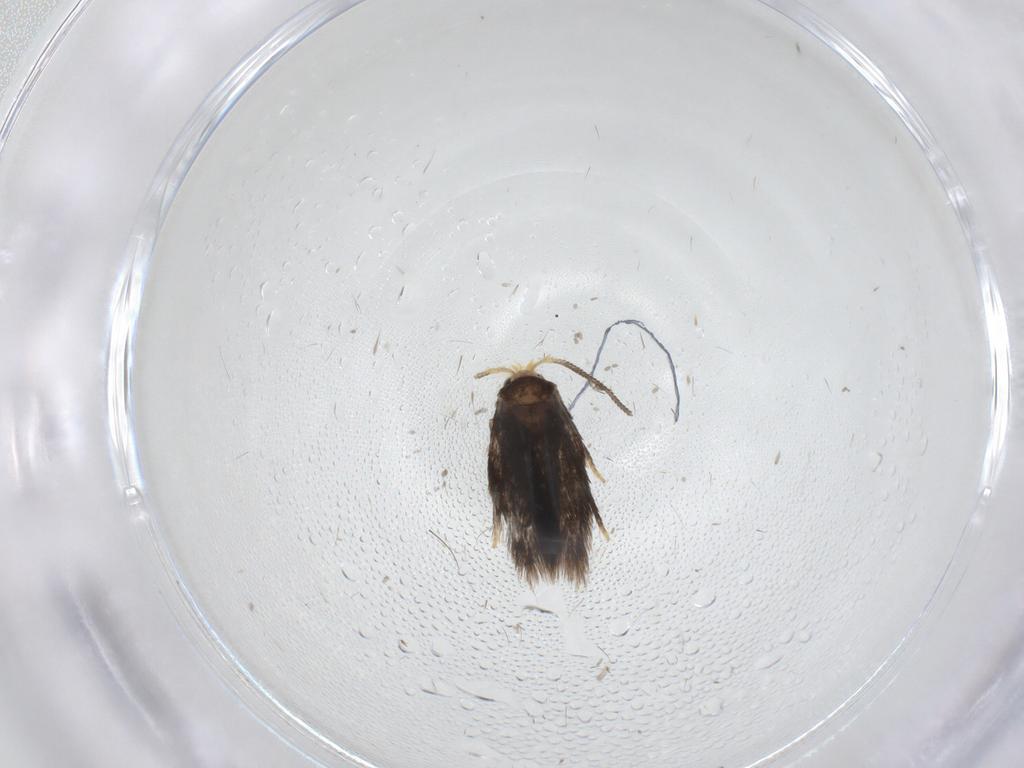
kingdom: Animalia
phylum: Arthropoda
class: Insecta
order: Lepidoptera
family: Nepticulidae
